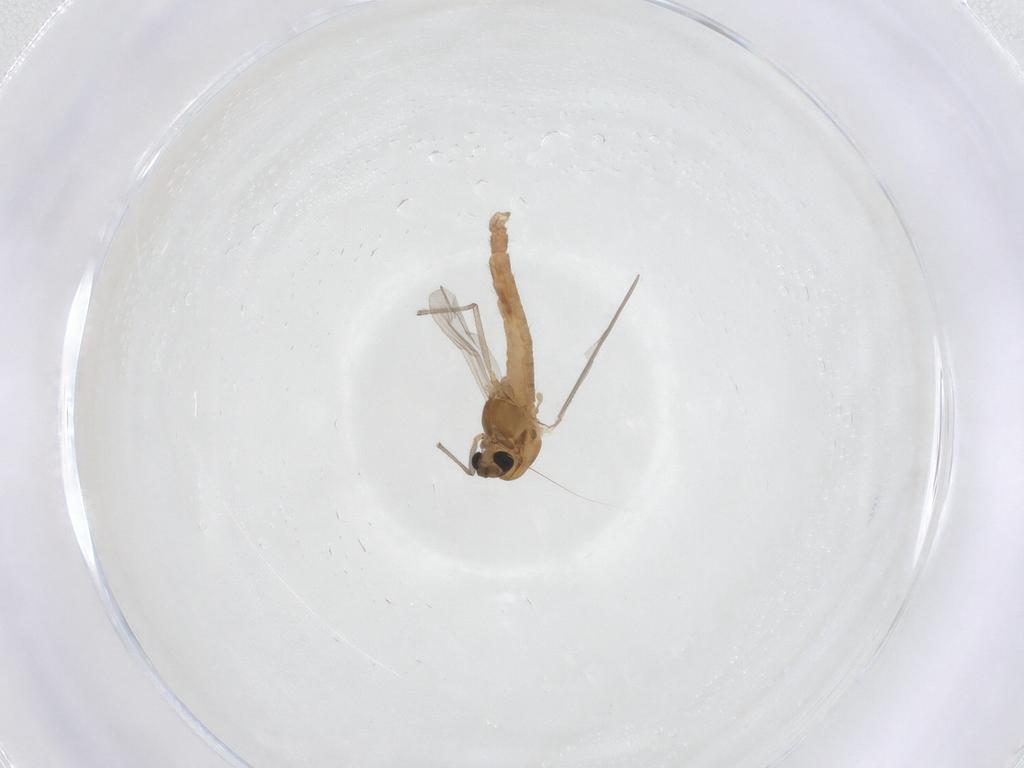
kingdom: Animalia
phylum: Arthropoda
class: Insecta
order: Diptera
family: Chironomidae
